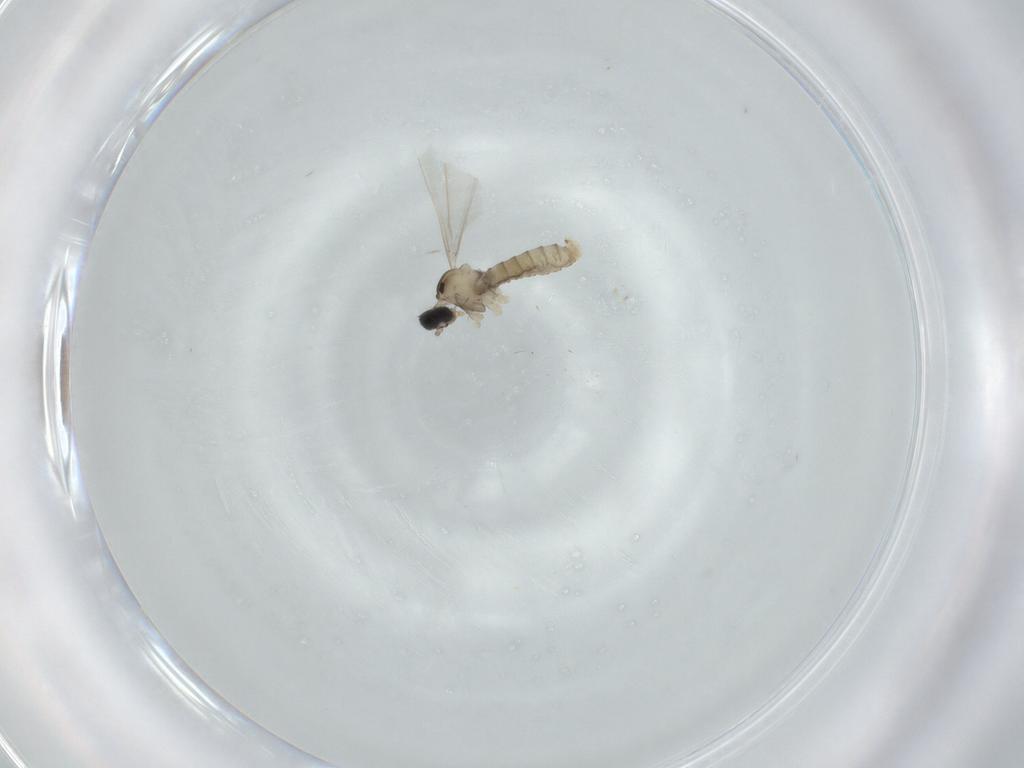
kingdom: Animalia
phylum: Arthropoda
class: Insecta
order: Diptera
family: Cecidomyiidae
